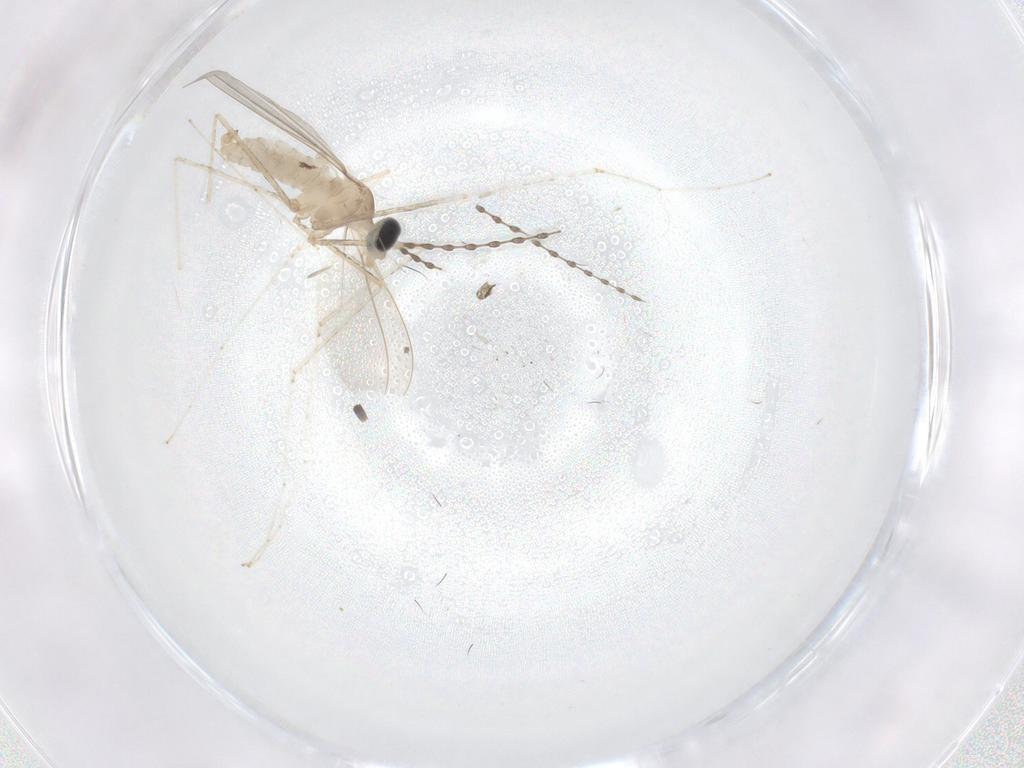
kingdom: Animalia
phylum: Arthropoda
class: Insecta
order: Diptera
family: Cecidomyiidae
